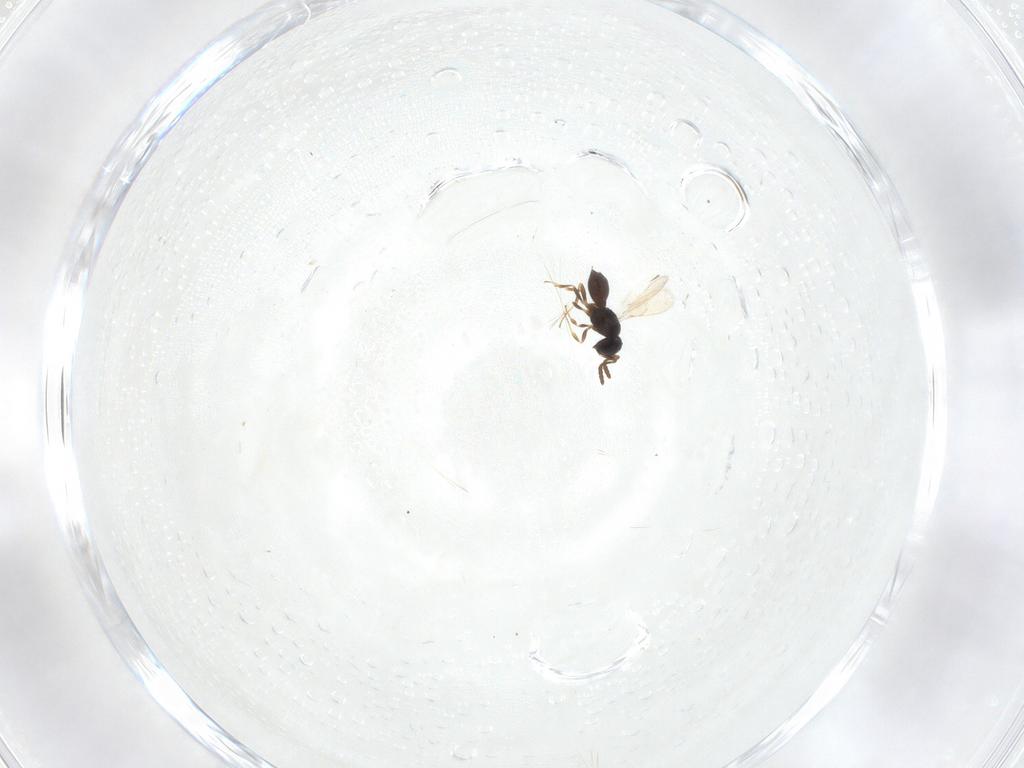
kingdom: Animalia
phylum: Arthropoda
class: Insecta
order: Hymenoptera
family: Scelionidae
